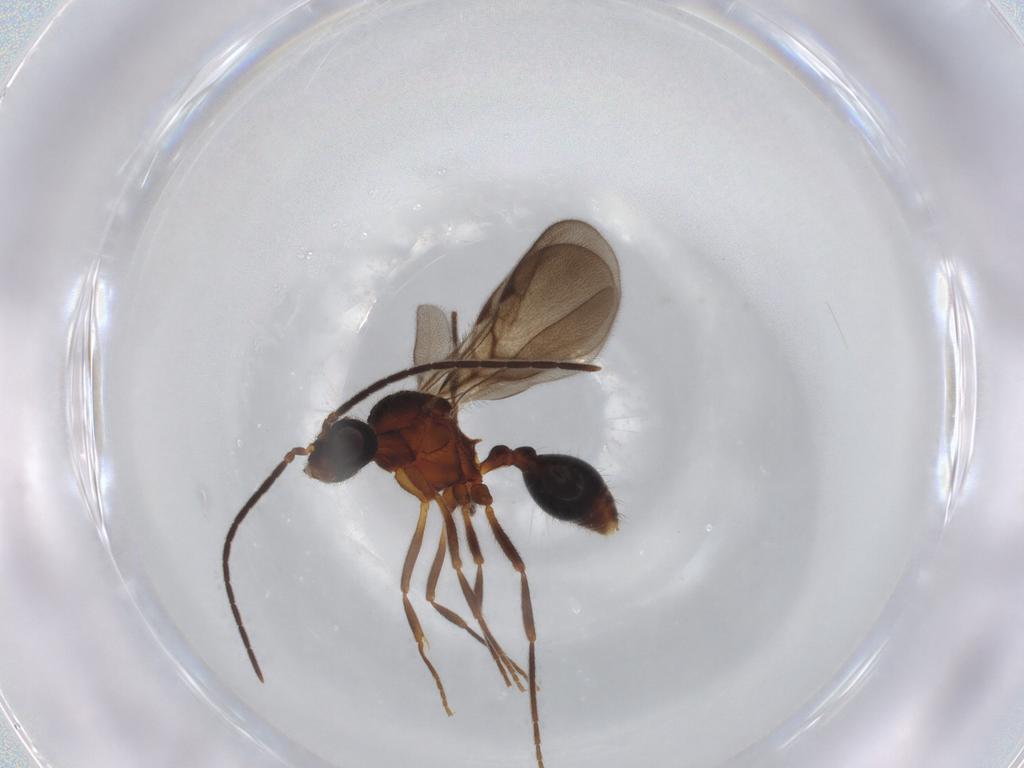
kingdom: Animalia
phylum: Arthropoda
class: Insecta
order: Hymenoptera
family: Formicidae
